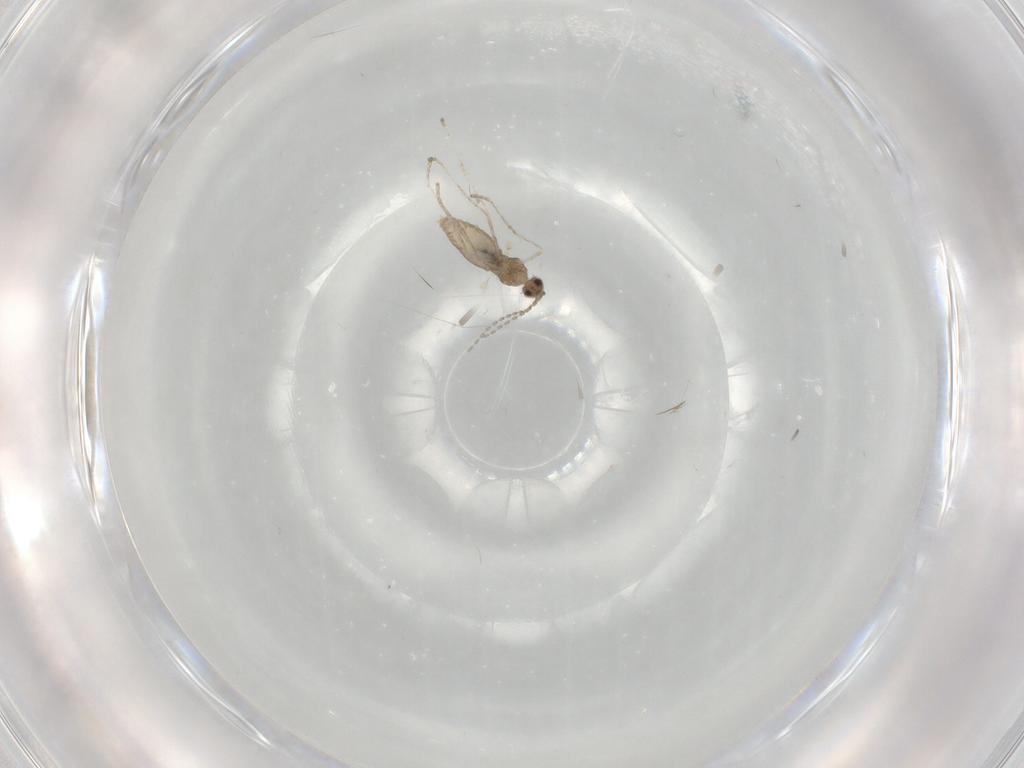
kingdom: Animalia
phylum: Arthropoda
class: Insecta
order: Diptera
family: Cecidomyiidae
